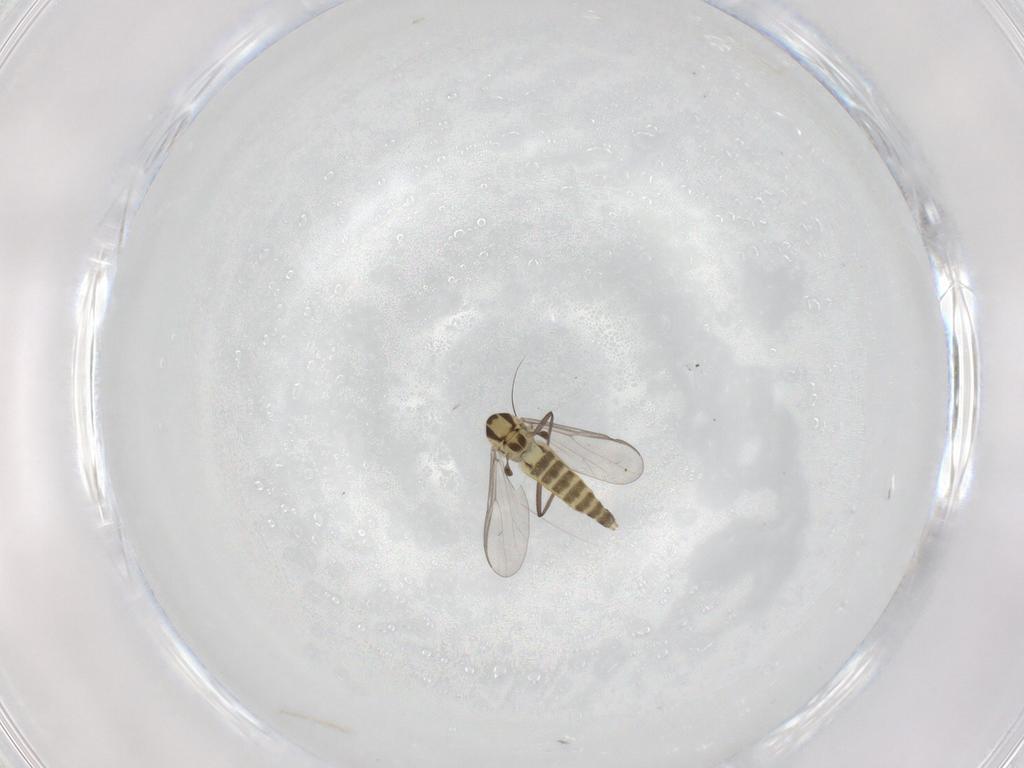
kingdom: Animalia
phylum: Arthropoda
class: Insecta
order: Diptera
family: Chironomidae
